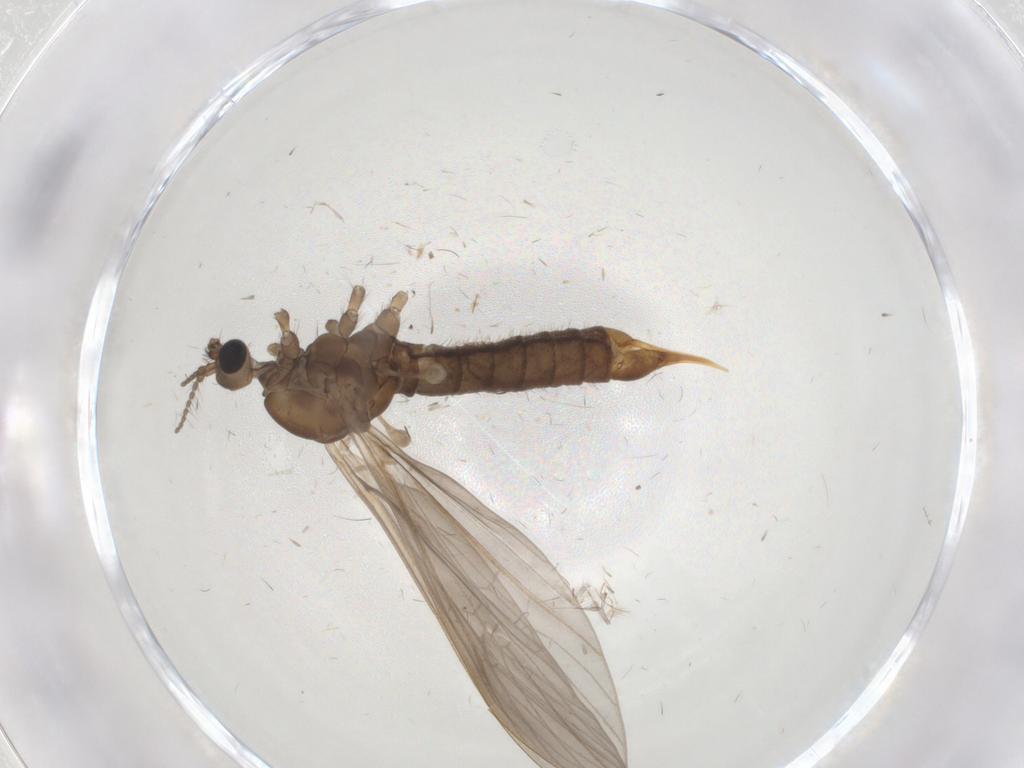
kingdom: Animalia
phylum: Arthropoda
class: Insecta
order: Diptera
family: Limoniidae
